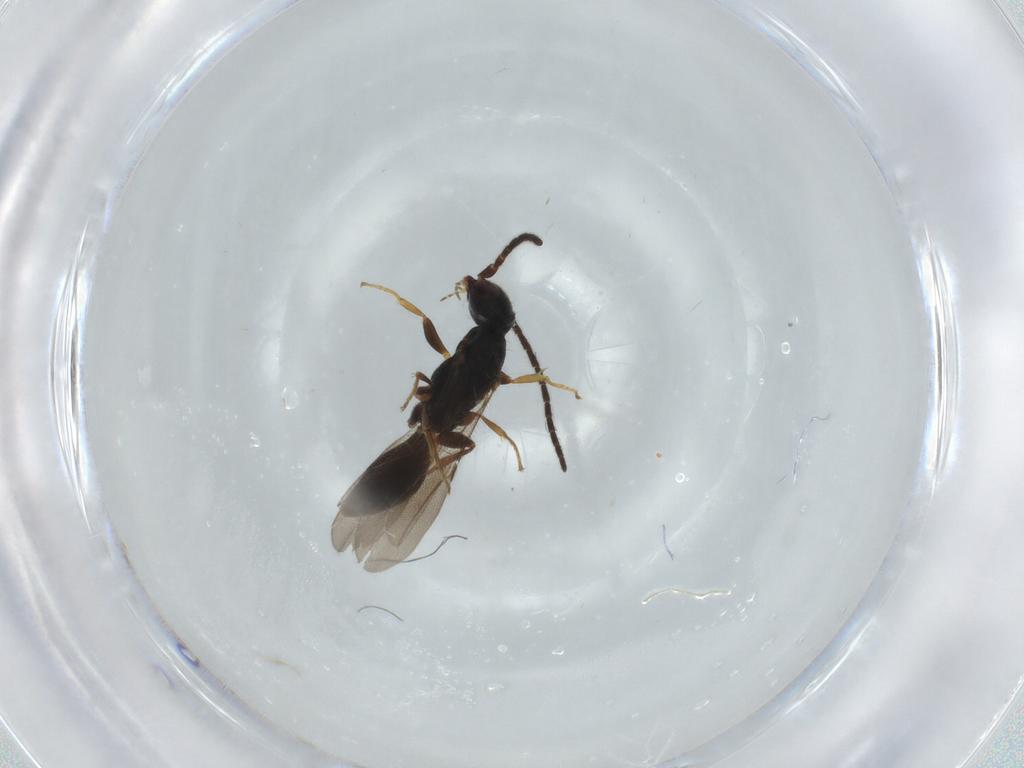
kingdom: Animalia
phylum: Arthropoda
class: Insecta
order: Hymenoptera
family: Bethylidae
